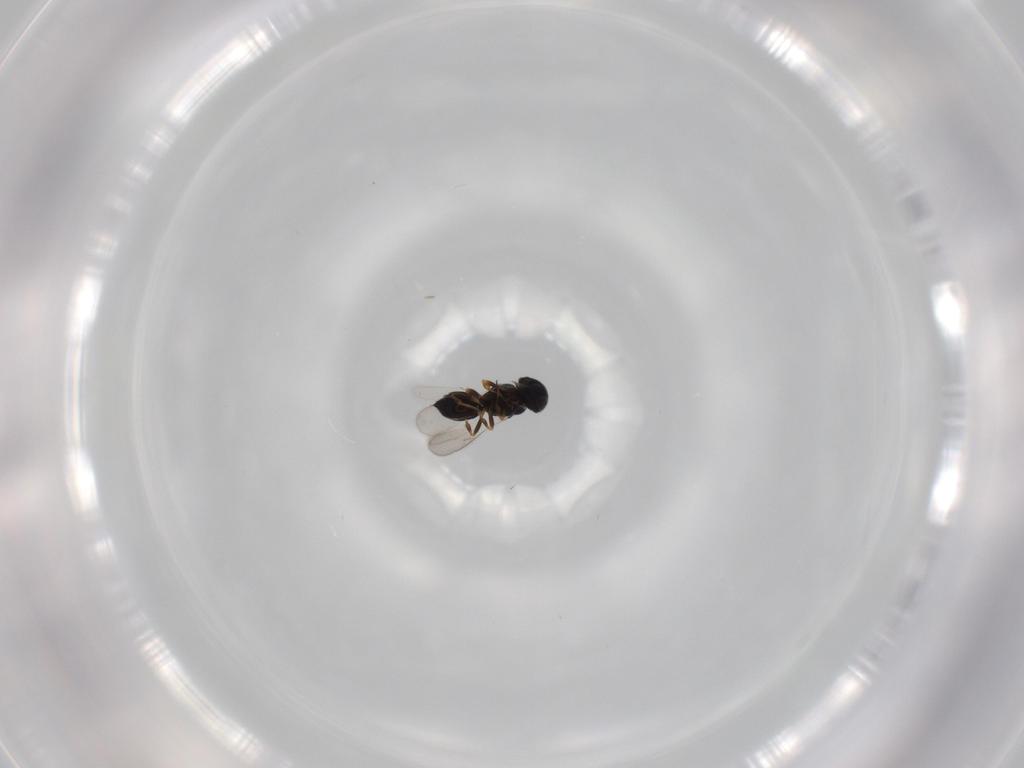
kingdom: Animalia
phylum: Arthropoda
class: Insecta
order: Hymenoptera
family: Scelionidae
